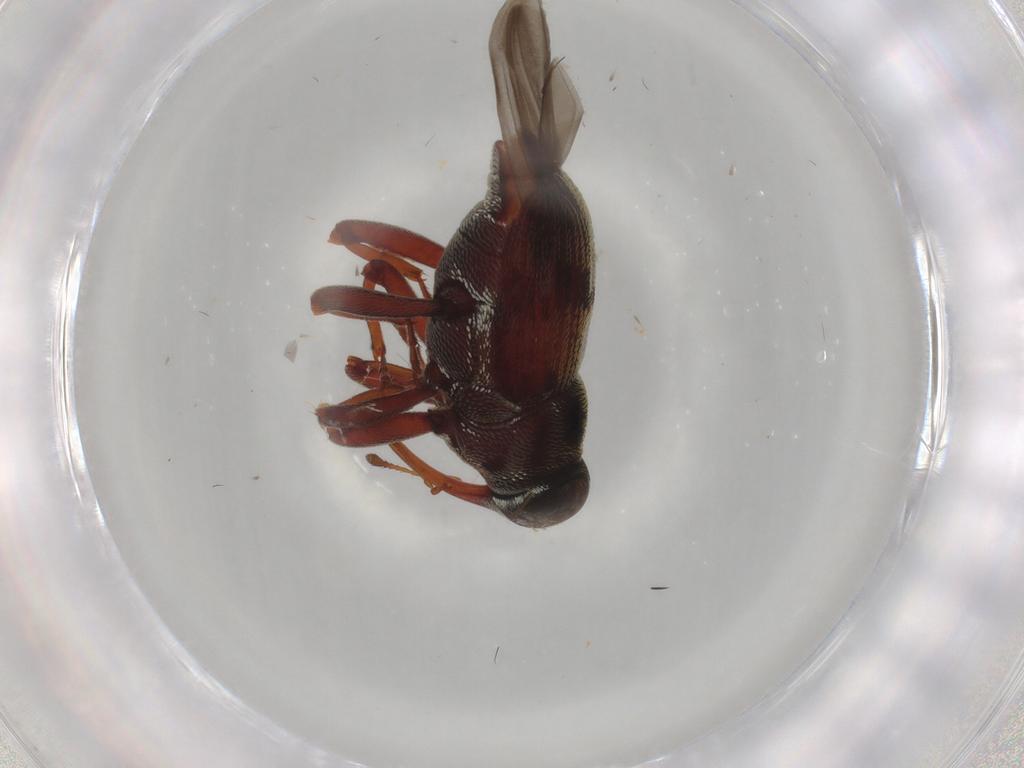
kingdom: Animalia
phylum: Arthropoda
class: Insecta
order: Coleoptera
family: Curculionidae
